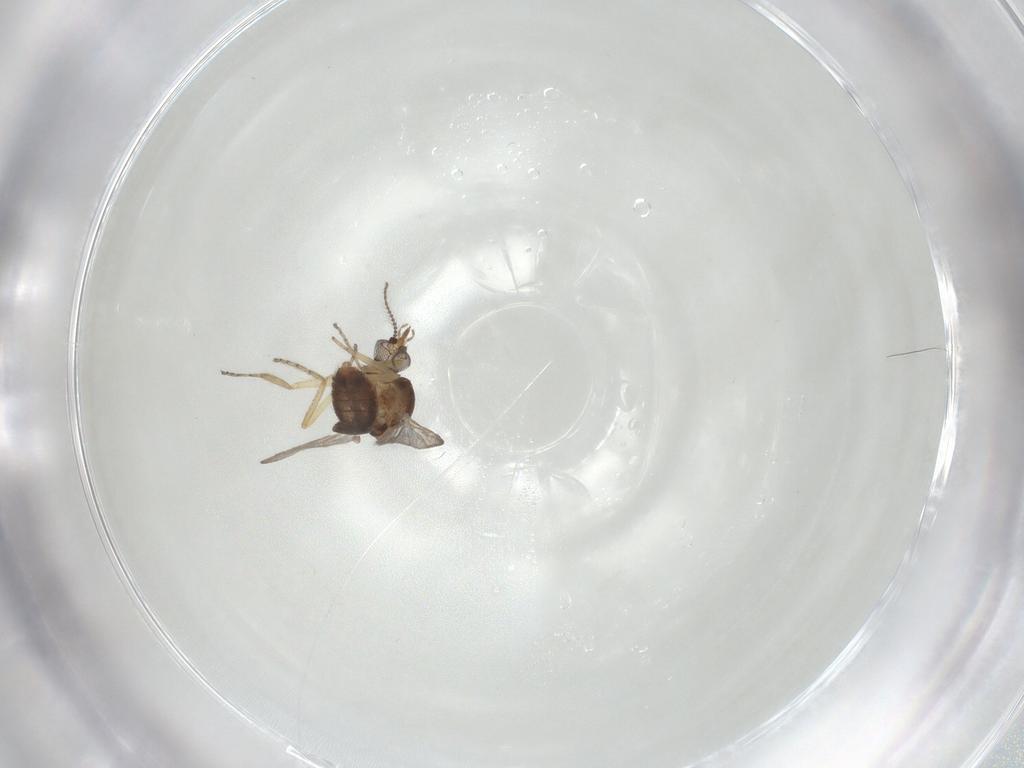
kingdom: Animalia
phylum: Arthropoda
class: Insecta
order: Diptera
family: Ceratopogonidae
